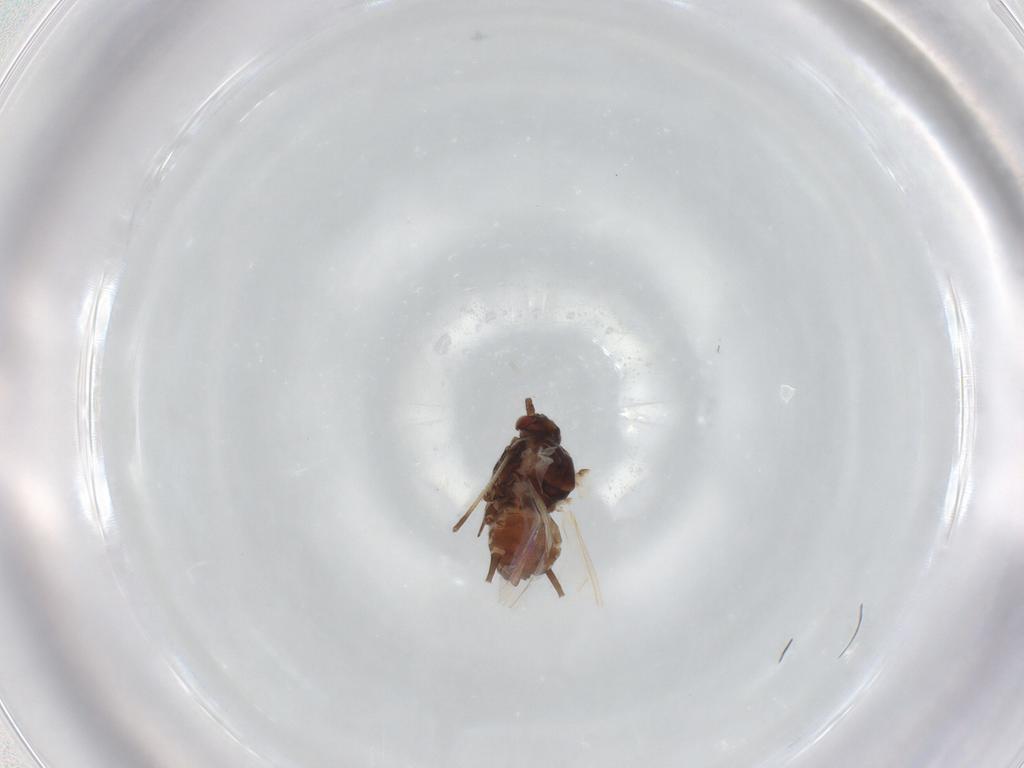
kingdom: Animalia
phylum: Arthropoda
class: Insecta
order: Hemiptera
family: Aphididae
